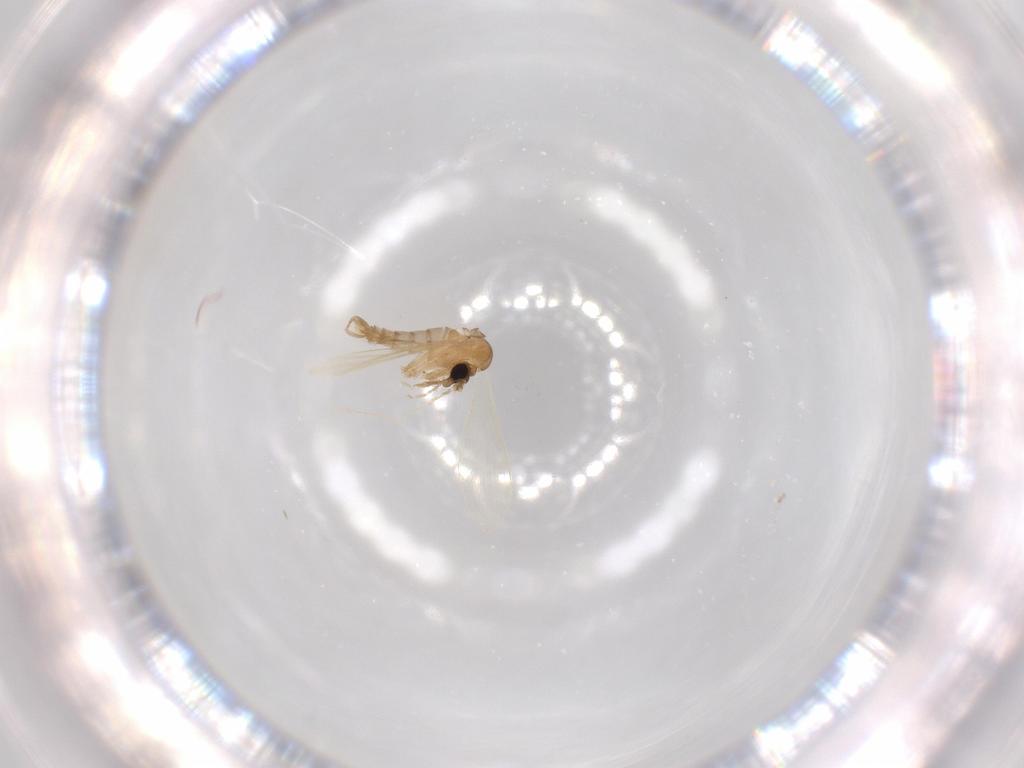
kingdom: Animalia
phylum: Arthropoda
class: Insecta
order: Diptera
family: Psychodidae
